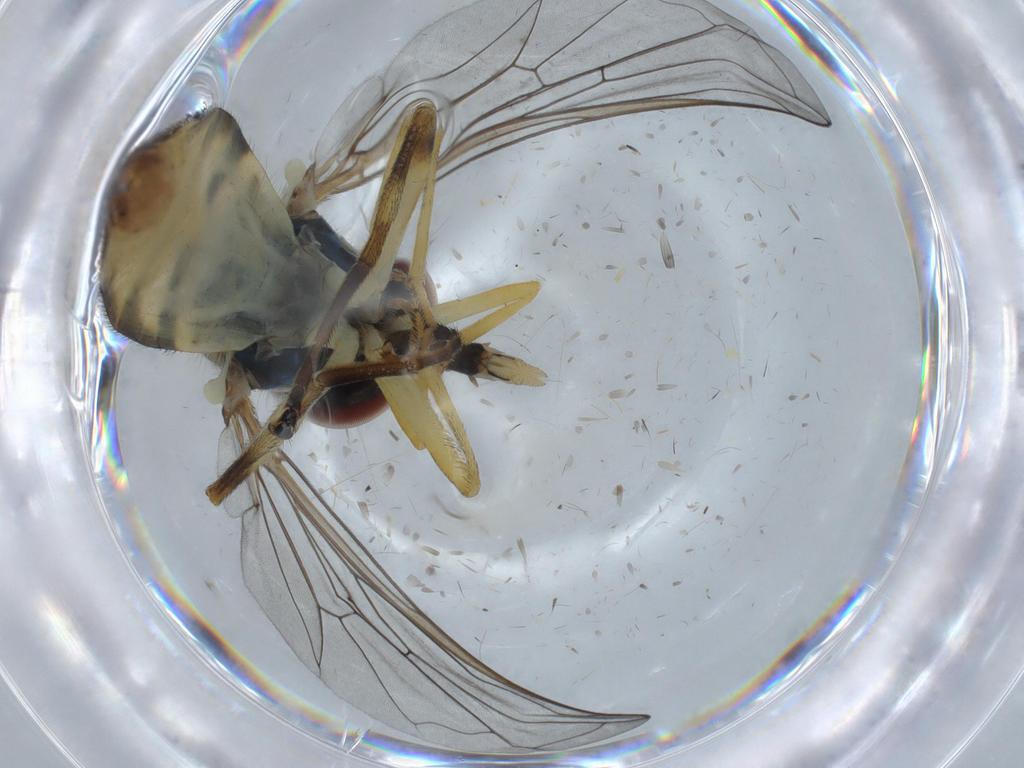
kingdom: Animalia
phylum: Arthropoda
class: Insecta
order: Diptera
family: Syrphidae
